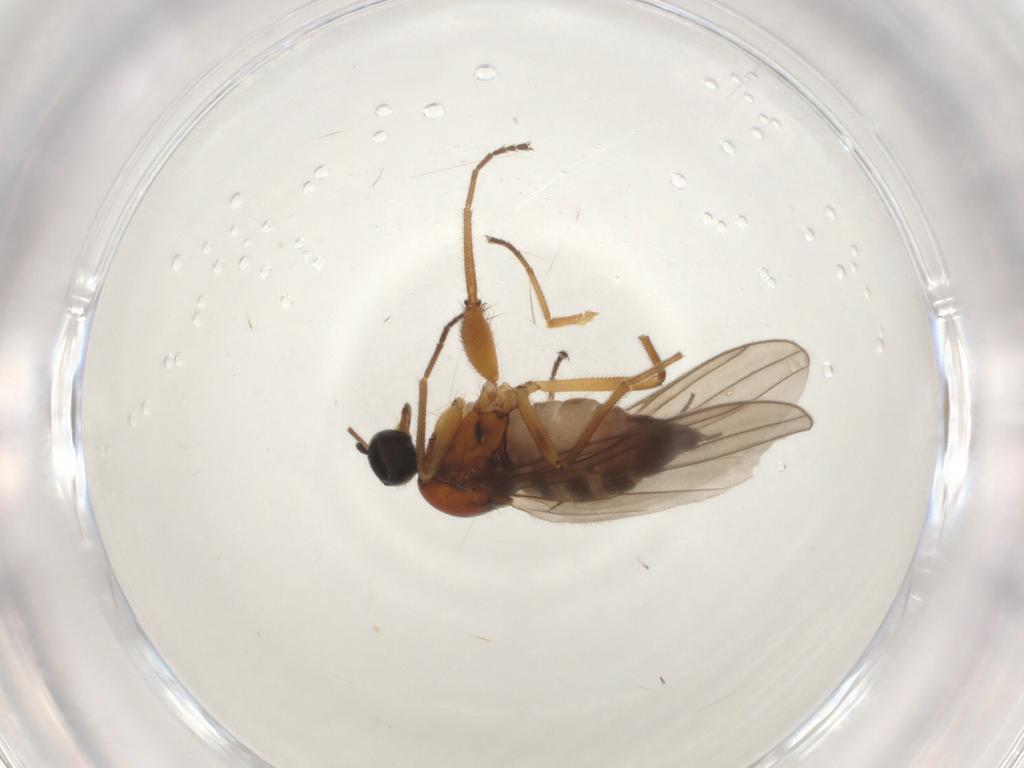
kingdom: Animalia
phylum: Arthropoda
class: Insecta
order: Diptera
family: Hybotidae
